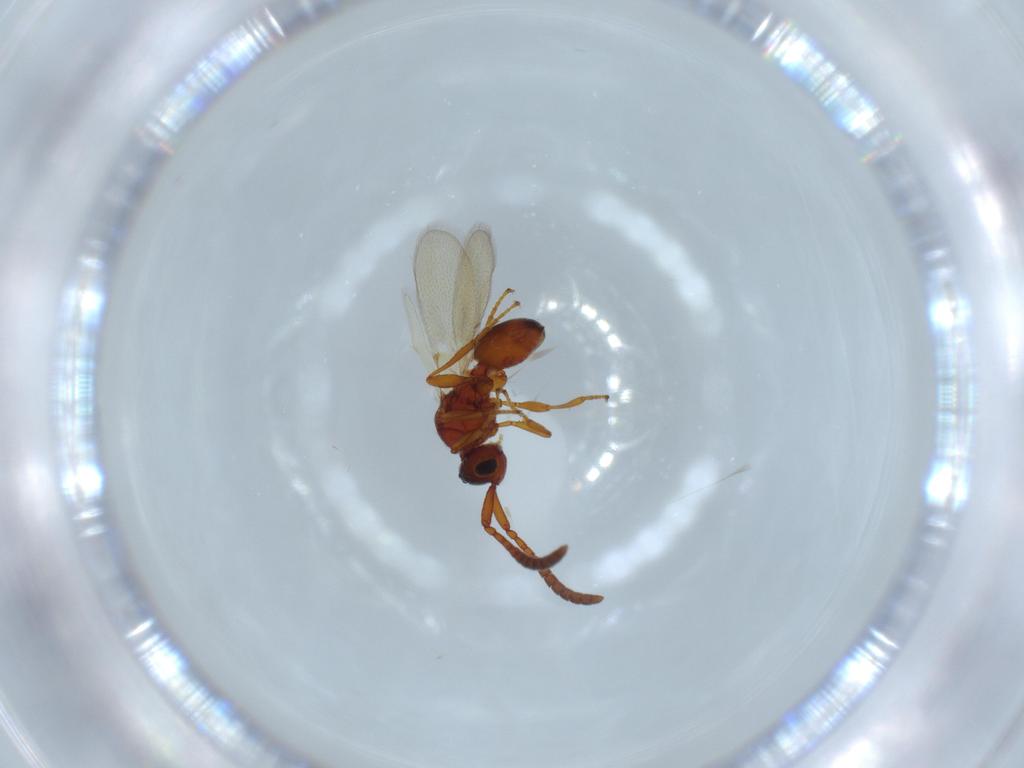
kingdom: Animalia
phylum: Arthropoda
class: Insecta
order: Hymenoptera
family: Diapriidae
